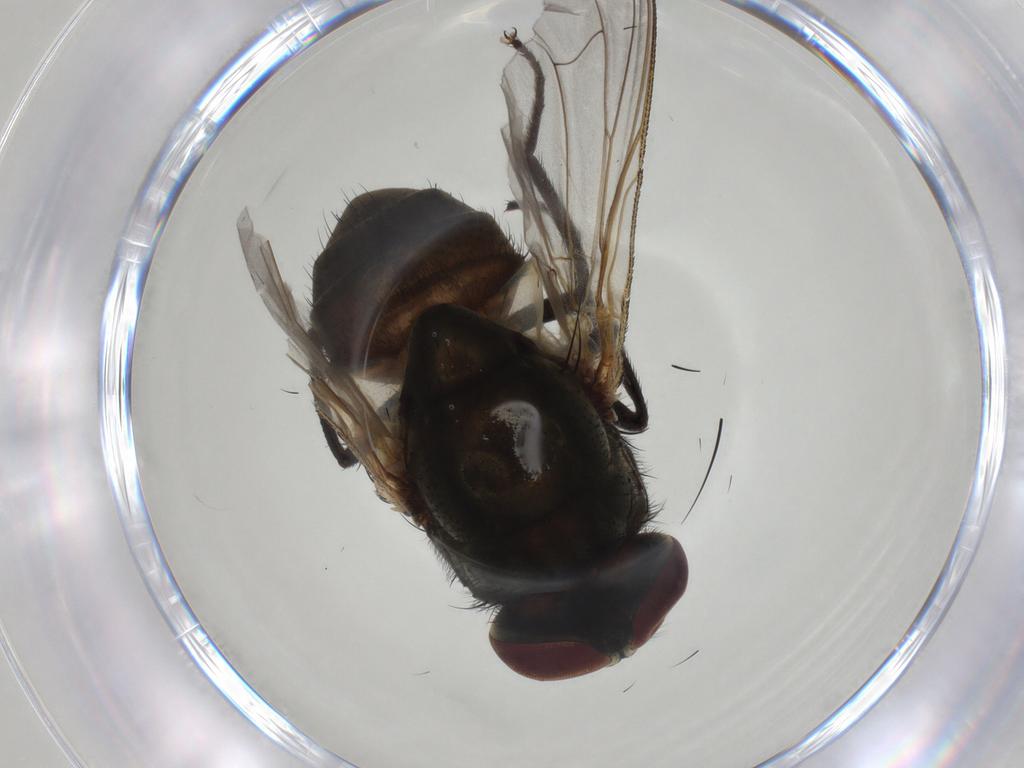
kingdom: Animalia
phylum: Arthropoda
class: Insecta
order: Diptera
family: Muscidae
